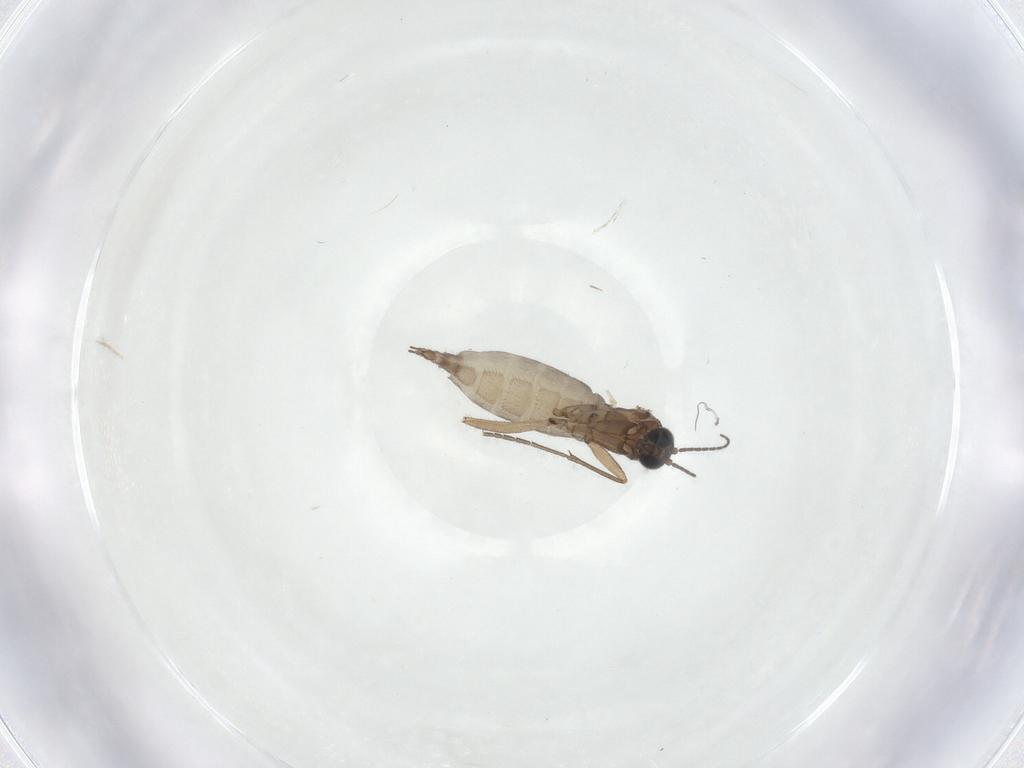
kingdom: Animalia
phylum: Arthropoda
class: Insecta
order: Diptera
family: Sciaridae
